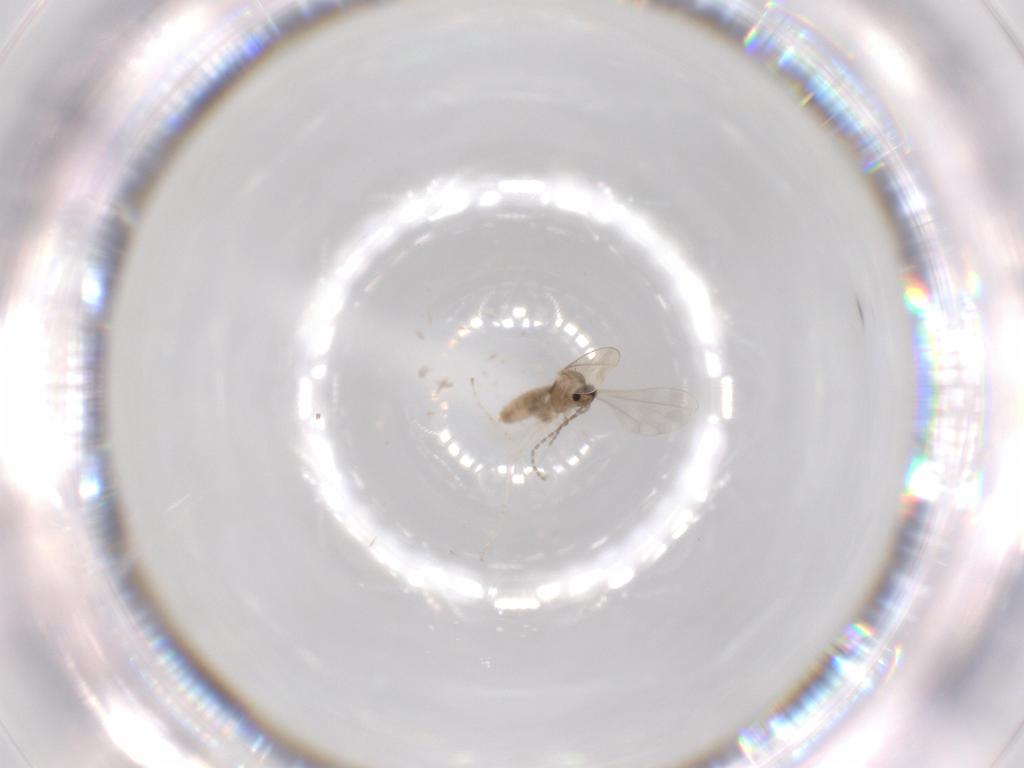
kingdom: Animalia
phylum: Arthropoda
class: Insecta
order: Diptera
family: Chironomidae
